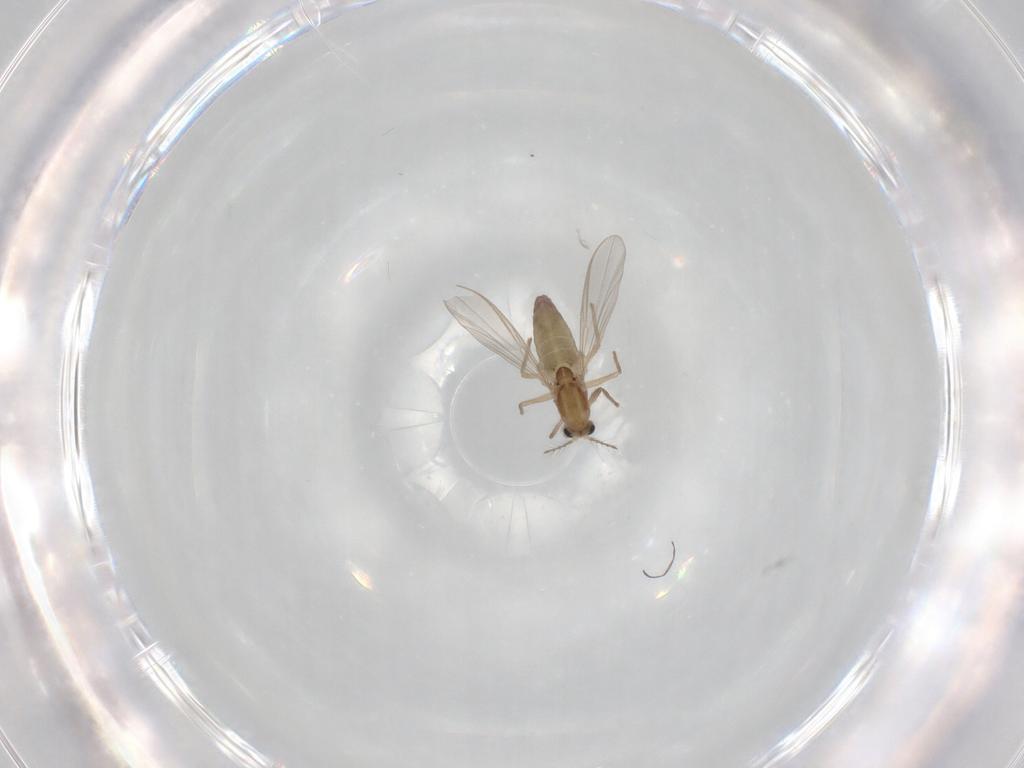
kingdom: Animalia
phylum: Arthropoda
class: Insecta
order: Diptera
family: Chironomidae
